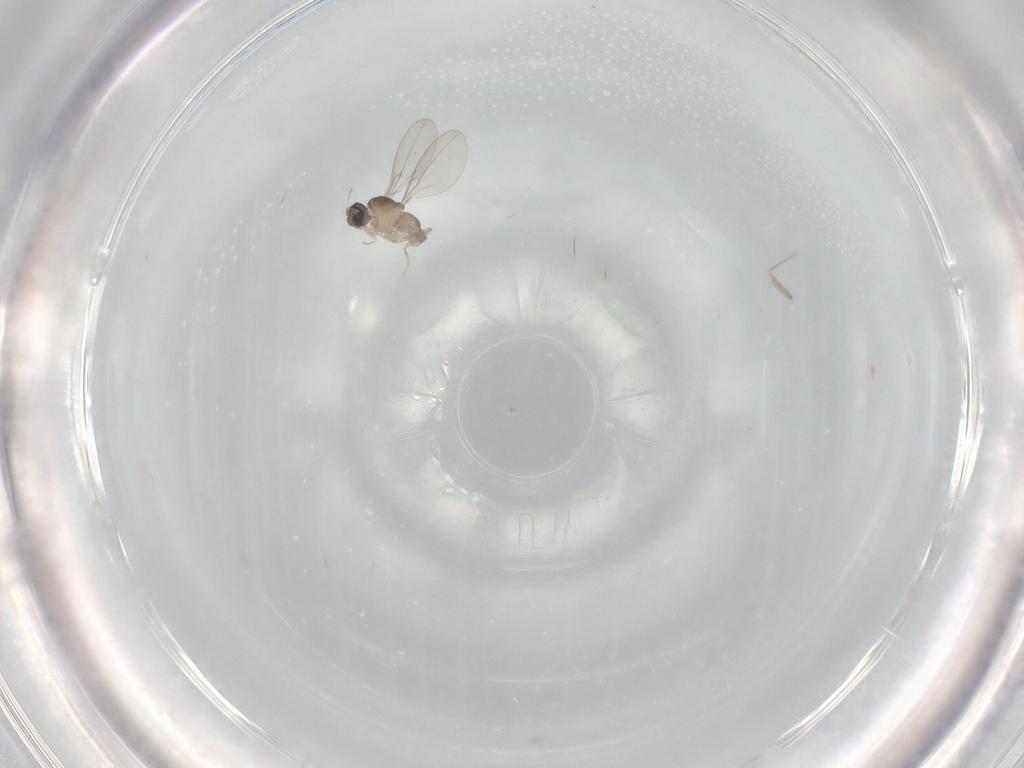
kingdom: Animalia
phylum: Arthropoda
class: Insecta
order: Diptera
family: Cecidomyiidae
